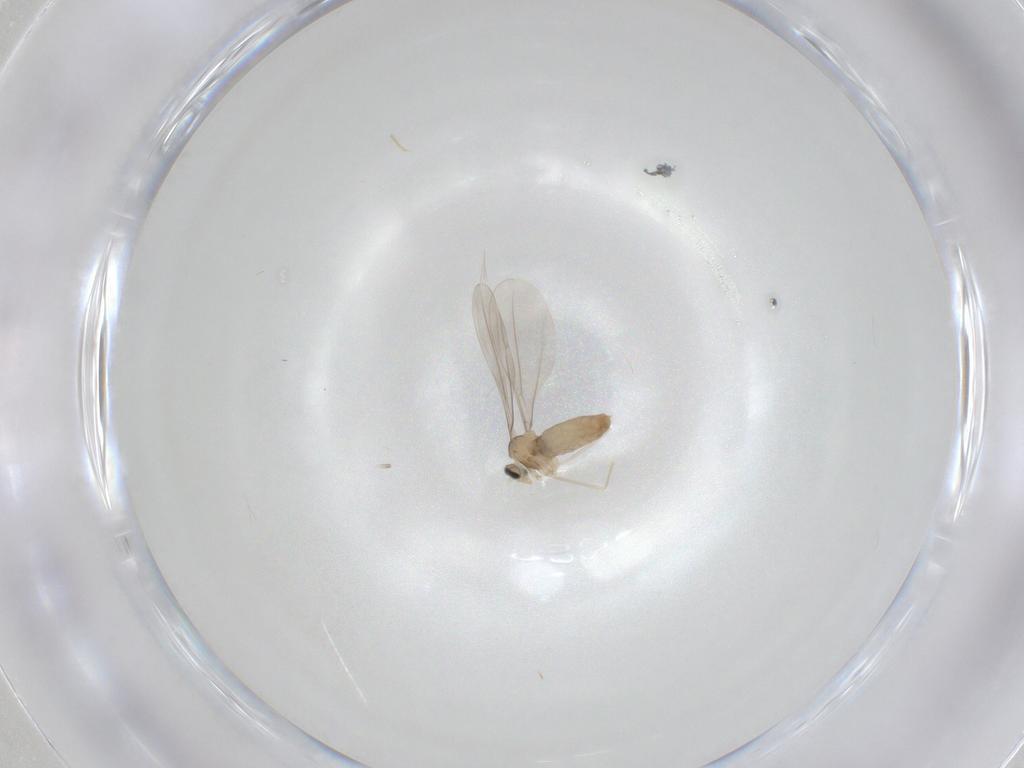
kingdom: Animalia
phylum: Arthropoda
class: Insecta
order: Diptera
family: Cecidomyiidae
